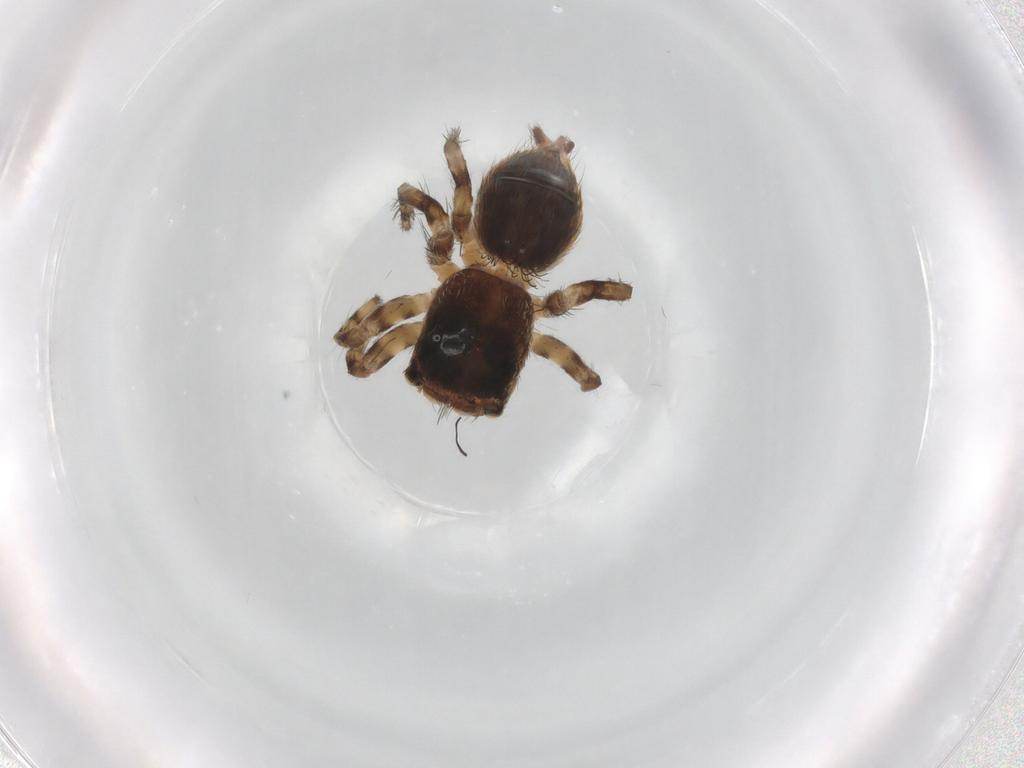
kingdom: Animalia
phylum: Arthropoda
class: Arachnida
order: Araneae
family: Salticidae
